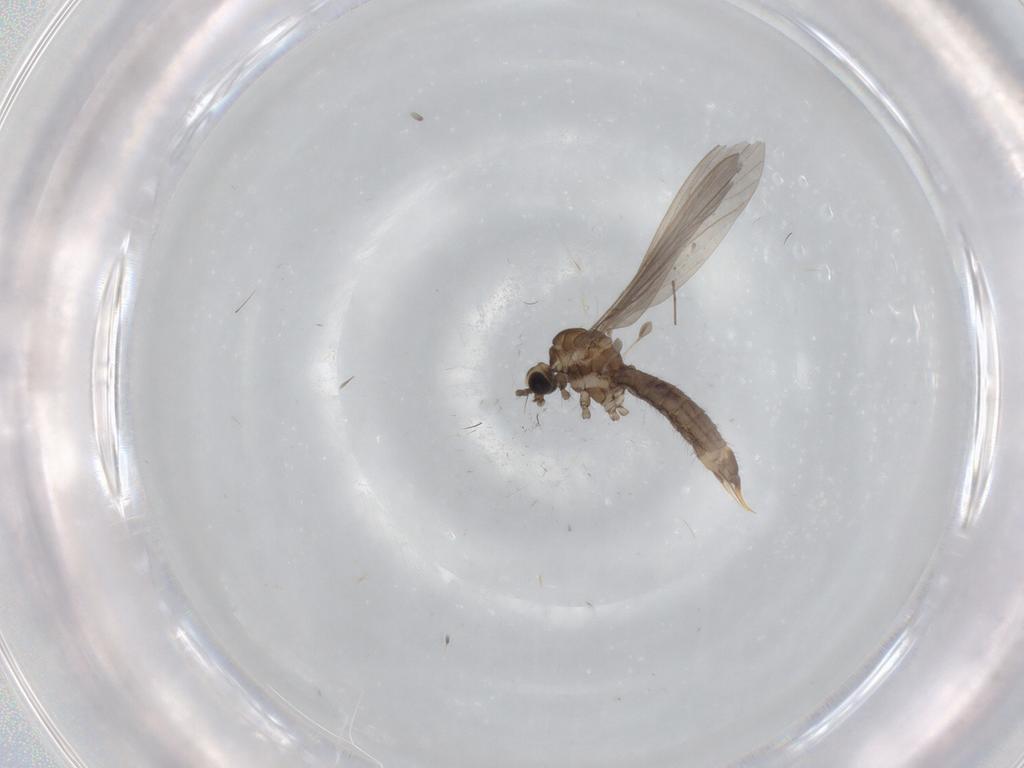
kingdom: Animalia
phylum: Arthropoda
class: Insecta
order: Diptera
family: Limoniidae
